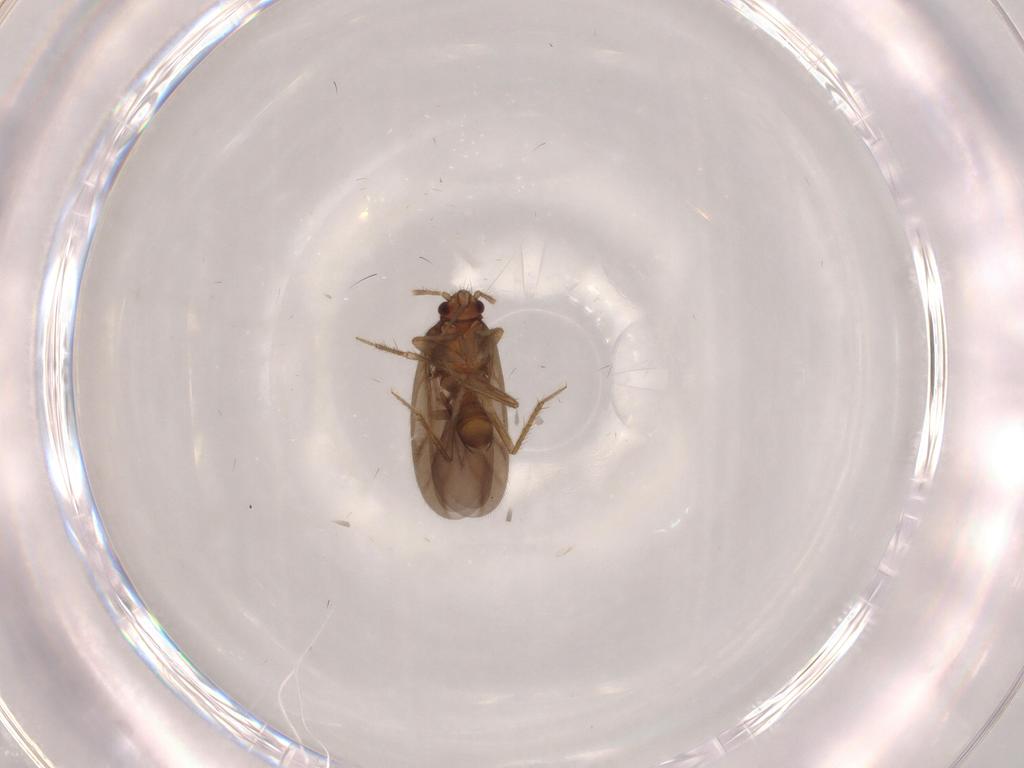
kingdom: Animalia
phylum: Arthropoda
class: Insecta
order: Hemiptera
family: Ceratocombidae
